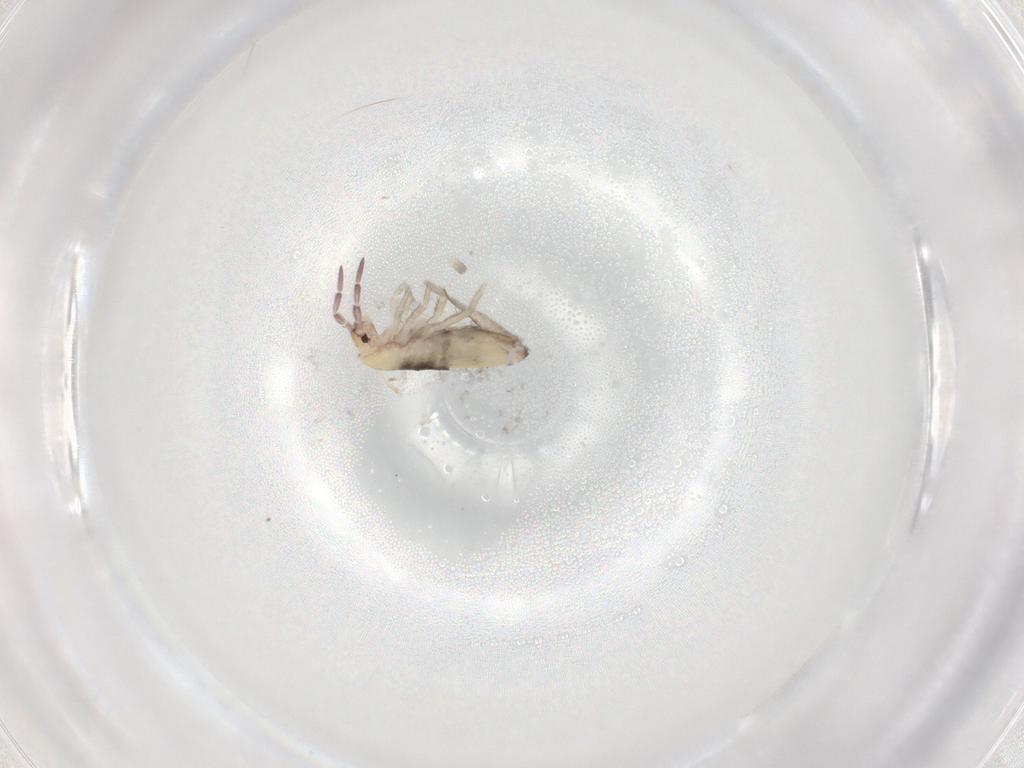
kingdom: Animalia
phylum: Arthropoda
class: Collembola
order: Entomobryomorpha
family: Entomobryidae
